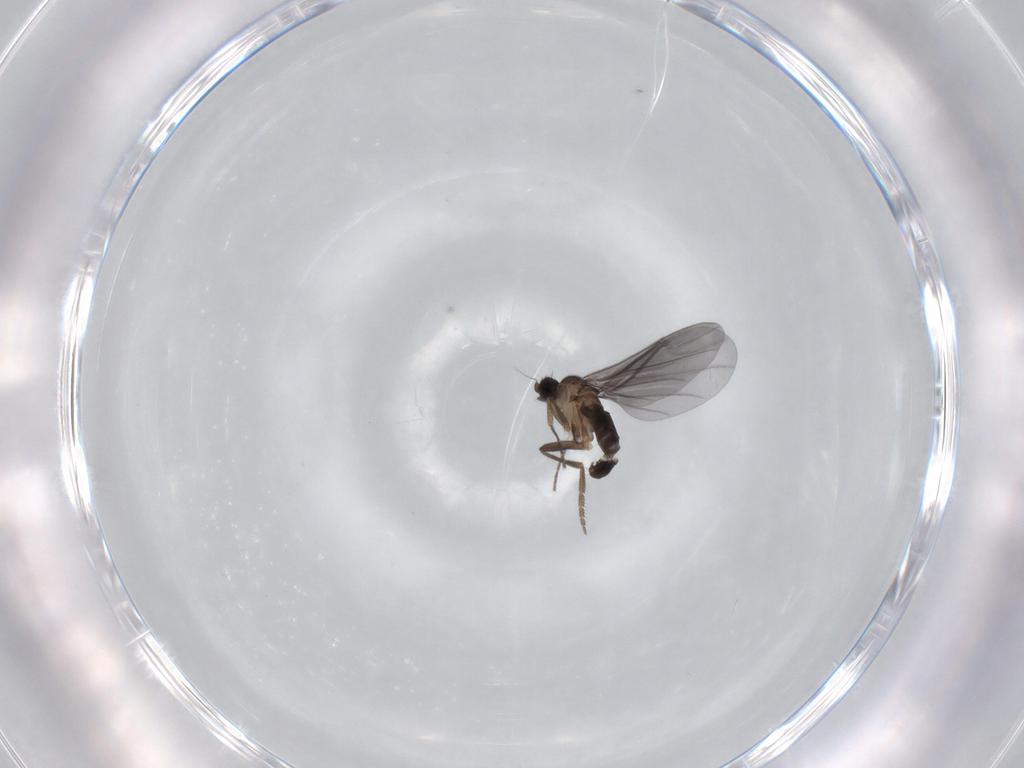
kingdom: Animalia
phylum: Arthropoda
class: Insecta
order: Diptera
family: Phoridae
